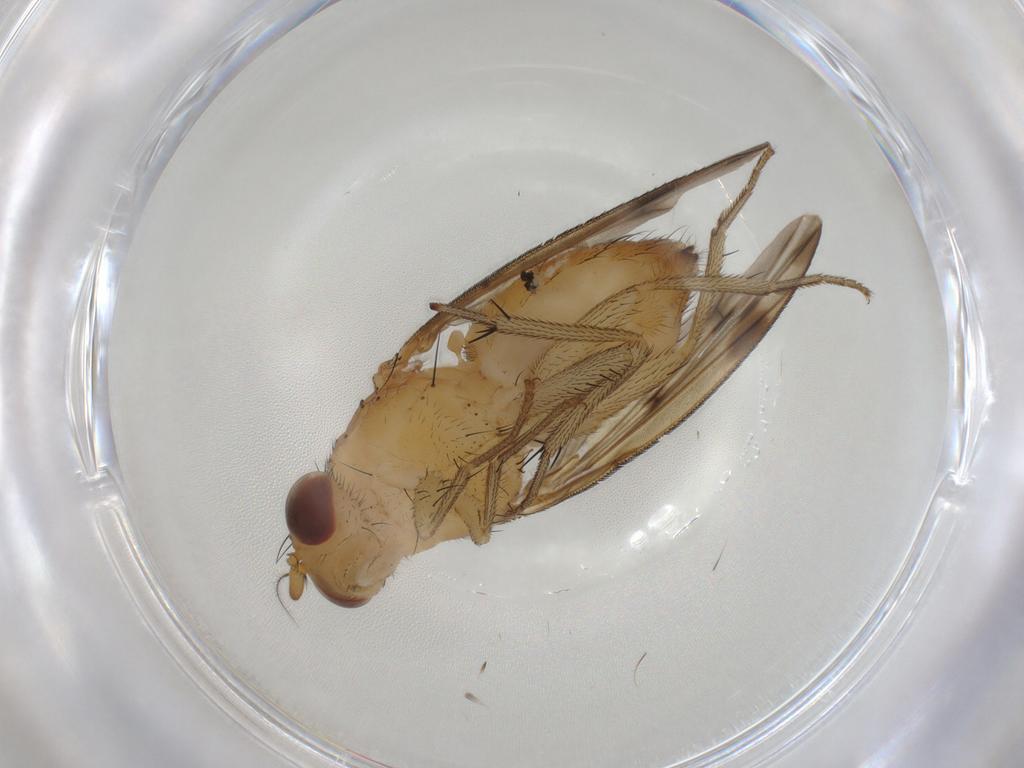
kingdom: Animalia
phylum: Arthropoda
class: Insecta
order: Diptera
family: Chironomidae
